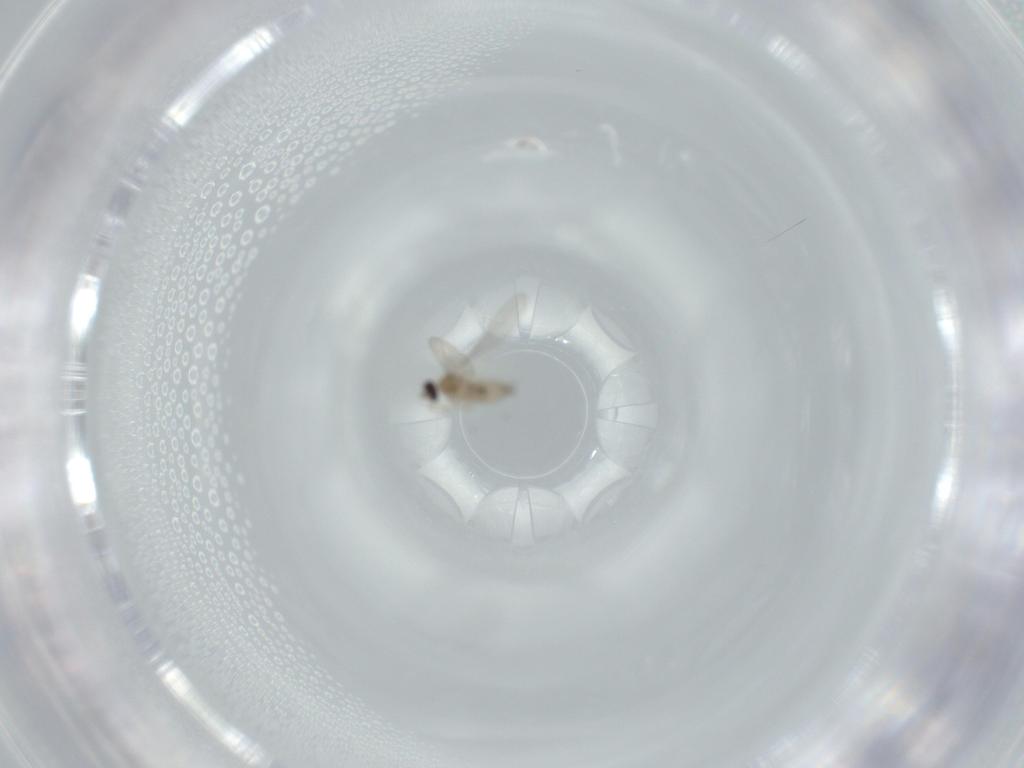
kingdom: Animalia
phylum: Arthropoda
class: Insecta
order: Diptera
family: Cecidomyiidae
